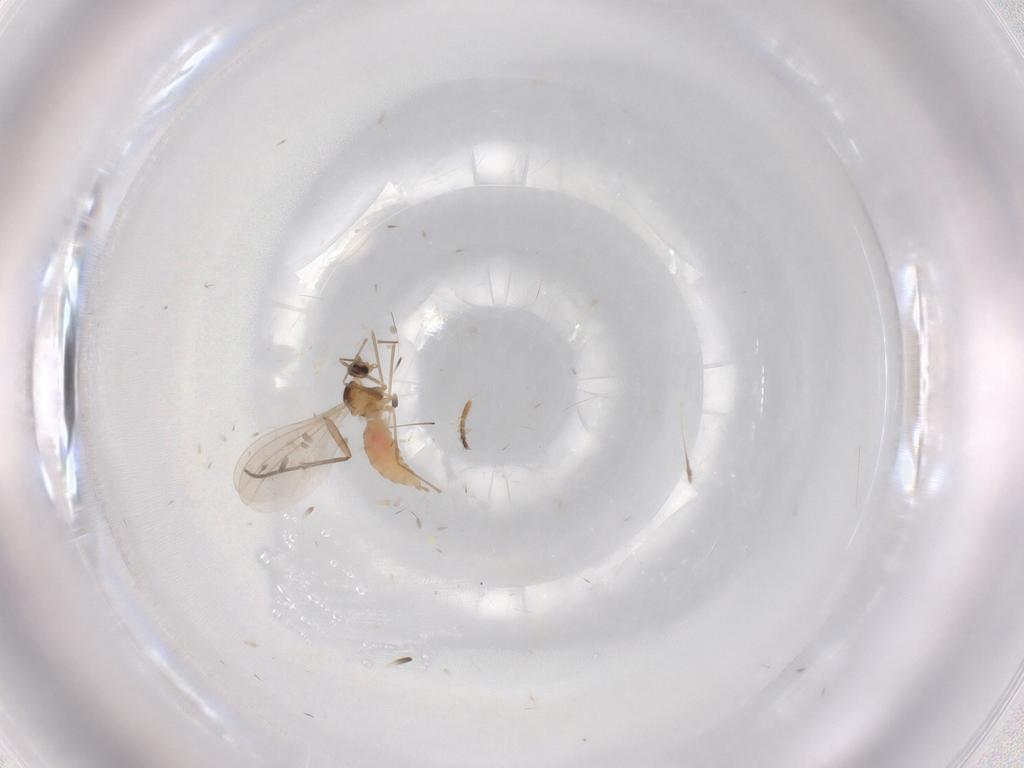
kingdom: Animalia
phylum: Arthropoda
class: Insecta
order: Diptera
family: Cecidomyiidae
